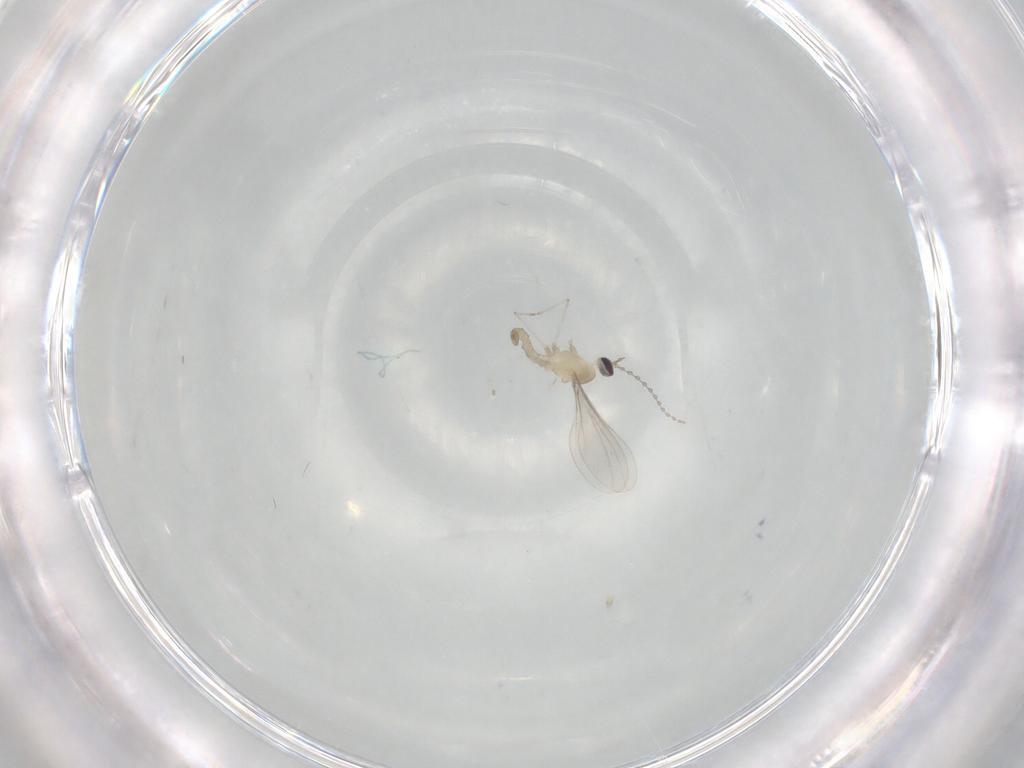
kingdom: Animalia
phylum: Arthropoda
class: Insecta
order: Diptera
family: Cecidomyiidae
